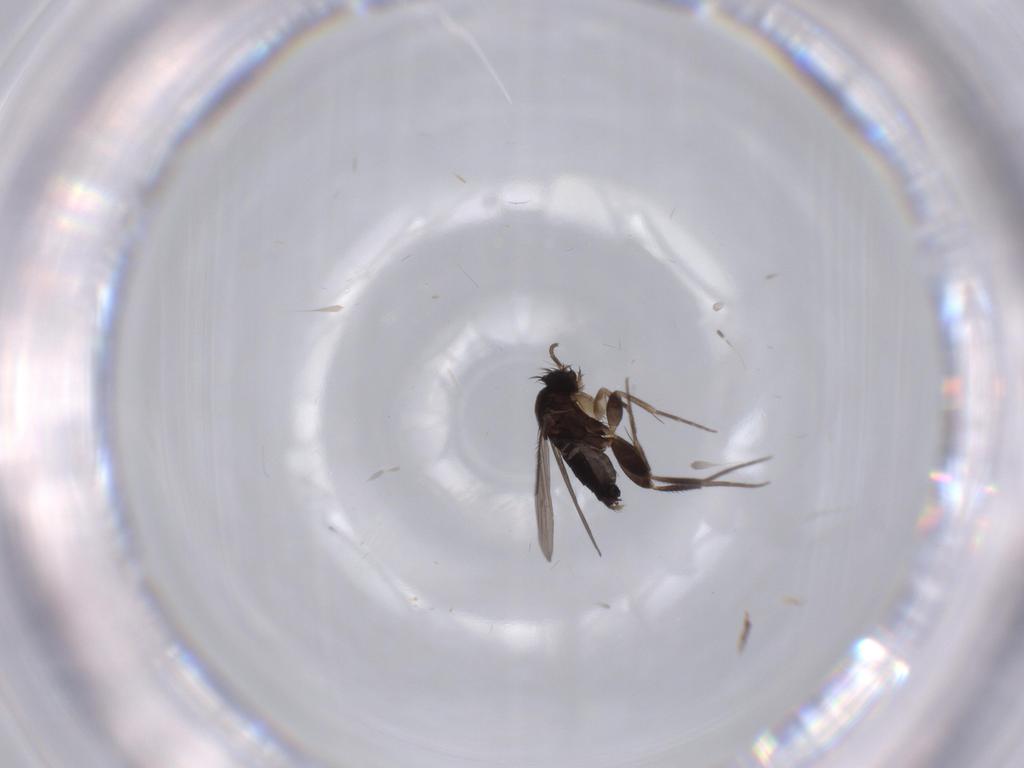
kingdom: Animalia
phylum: Arthropoda
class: Insecta
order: Diptera
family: Phoridae
